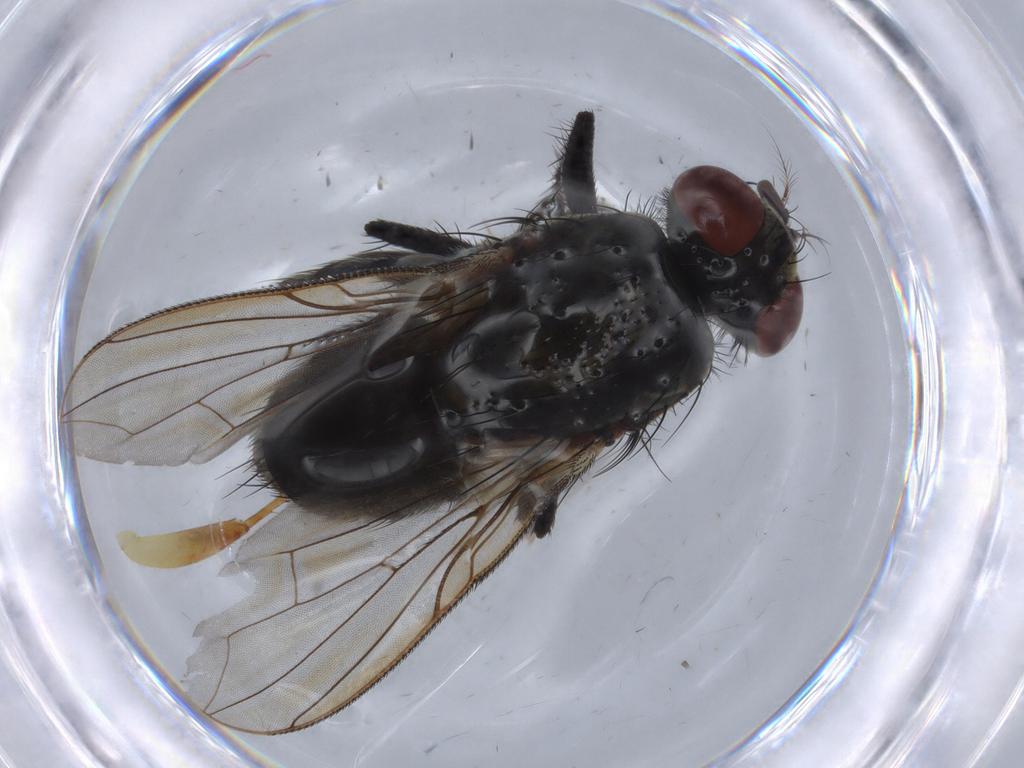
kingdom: Animalia
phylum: Arthropoda
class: Insecta
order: Diptera
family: Sarcophagidae
